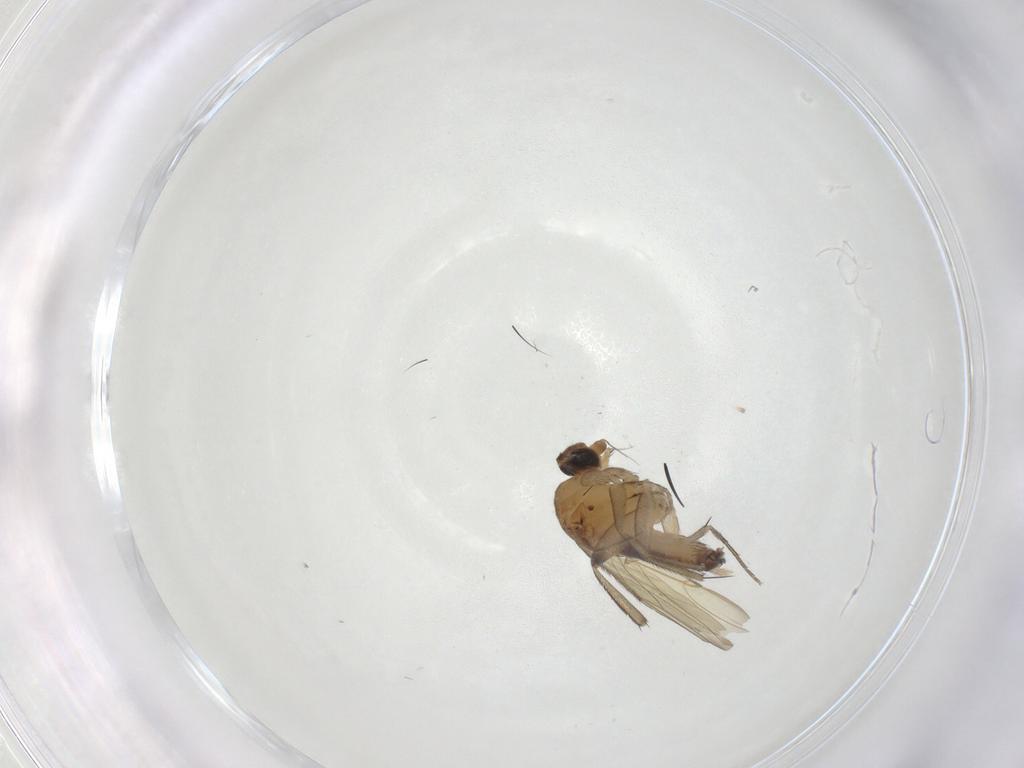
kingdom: Animalia
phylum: Arthropoda
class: Insecta
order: Diptera
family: Phoridae
